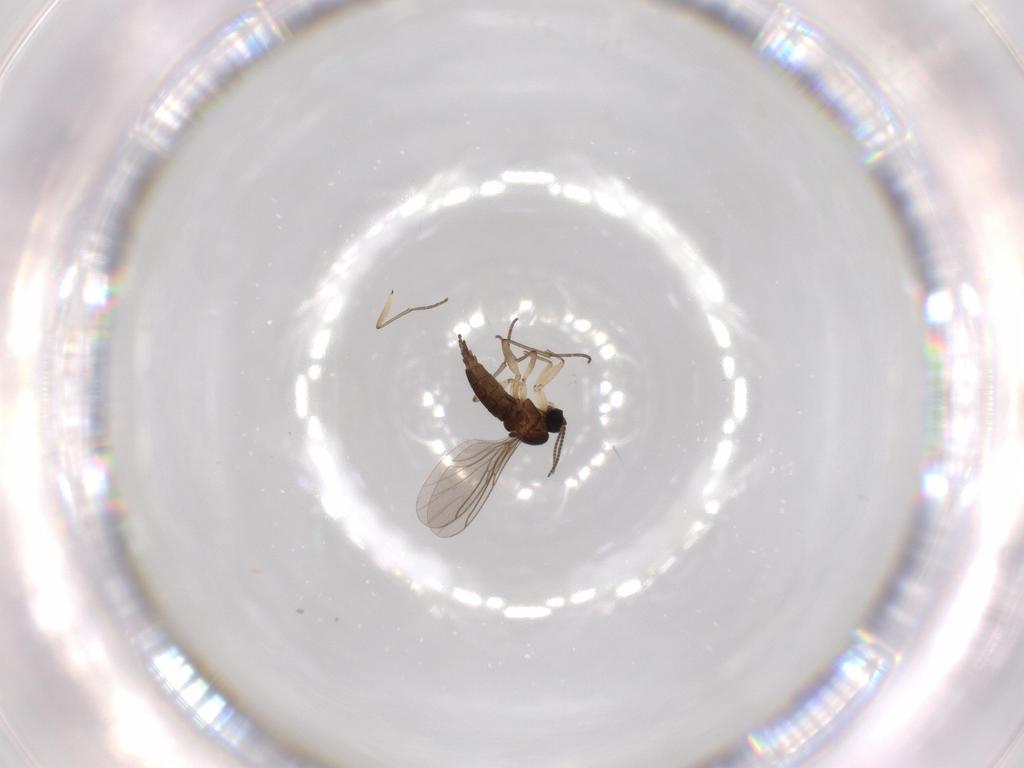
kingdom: Animalia
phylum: Arthropoda
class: Insecta
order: Diptera
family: Sciaridae
